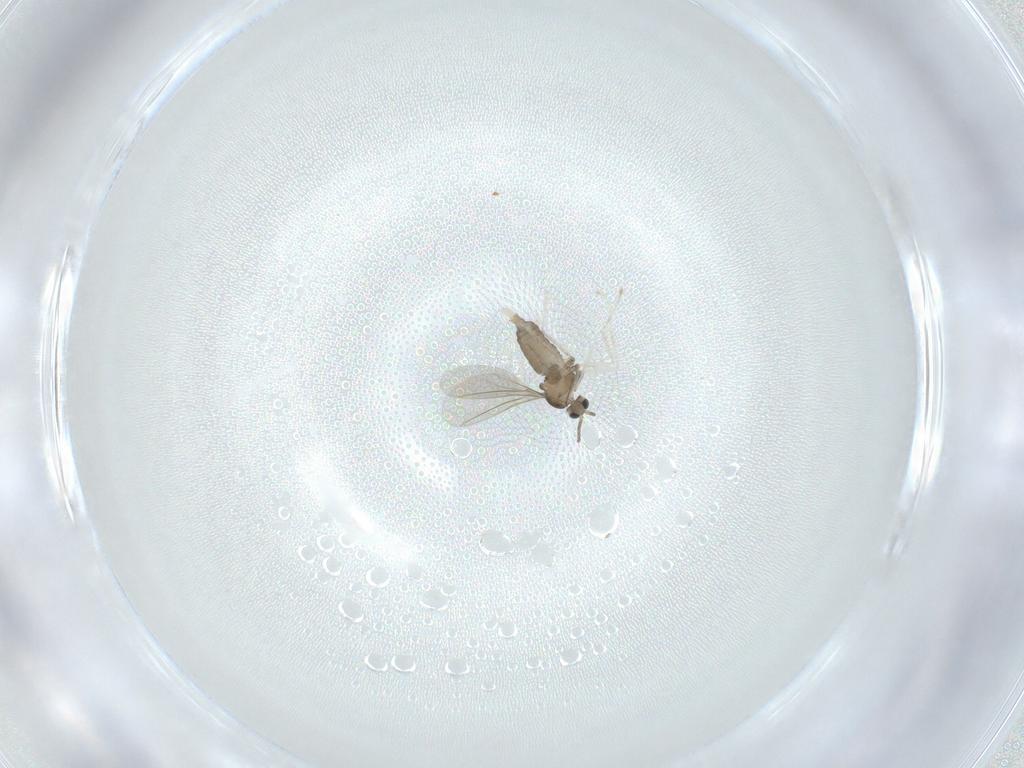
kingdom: Animalia
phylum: Arthropoda
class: Insecta
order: Diptera
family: Cecidomyiidae
